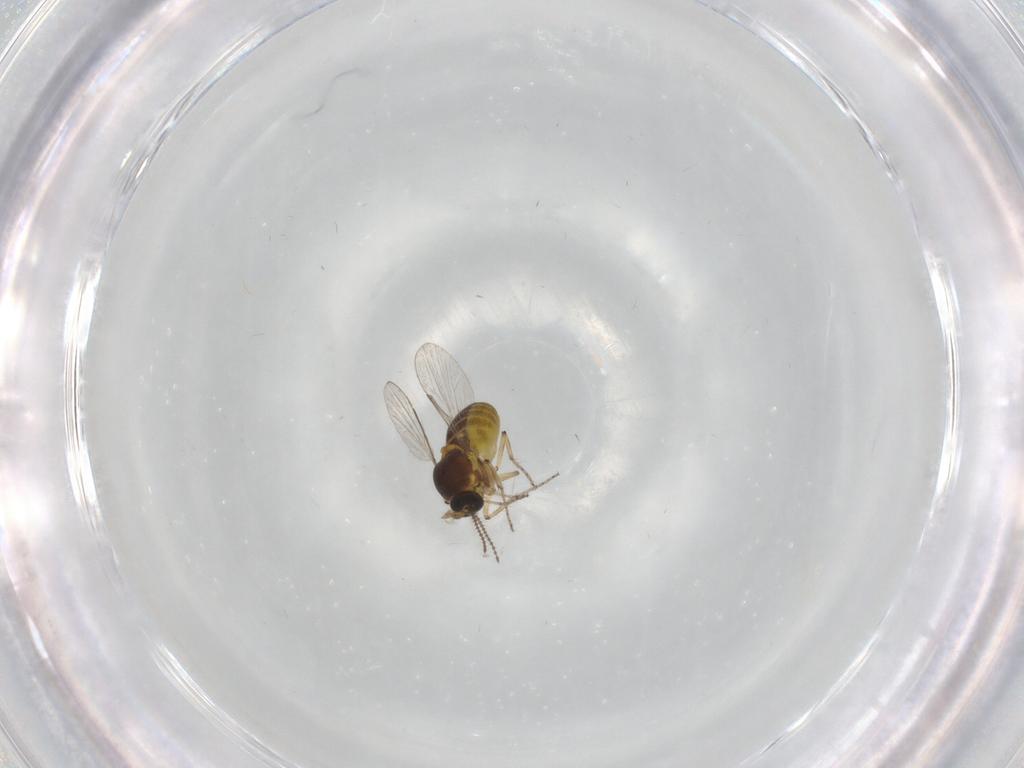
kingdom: Animalia
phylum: Arthropoda
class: Insecta
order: Diptera
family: Ceratopogonidae
